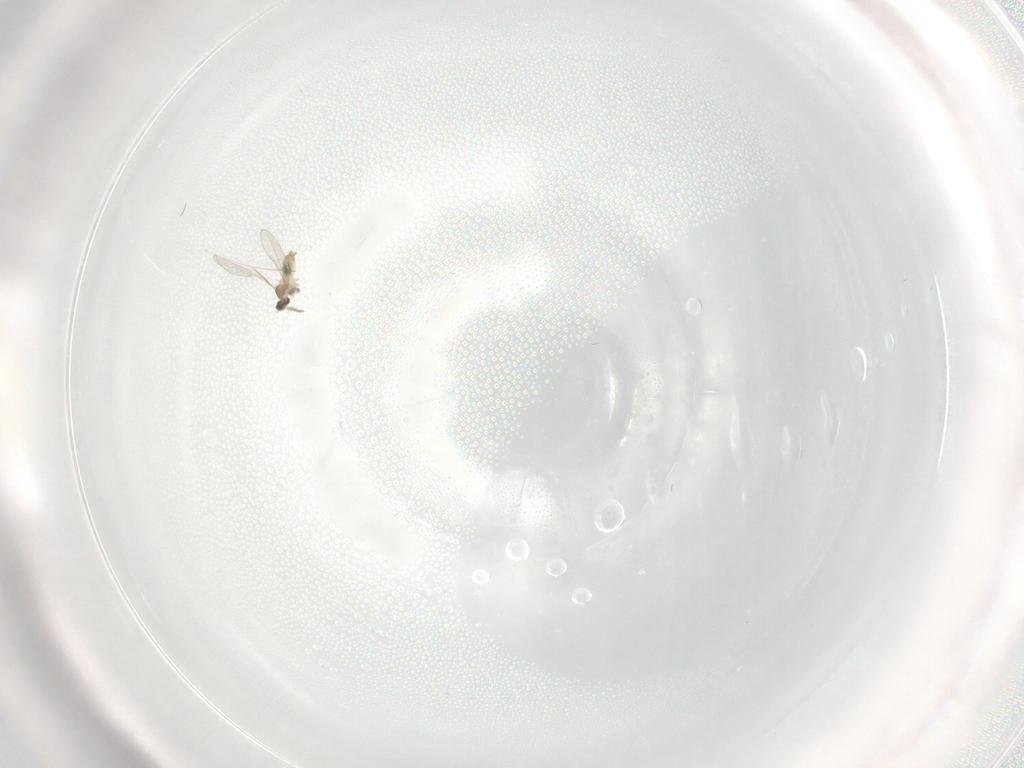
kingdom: Animalia
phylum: Arthropoda
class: Insecta
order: Diptera
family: Cecidomyiidae
